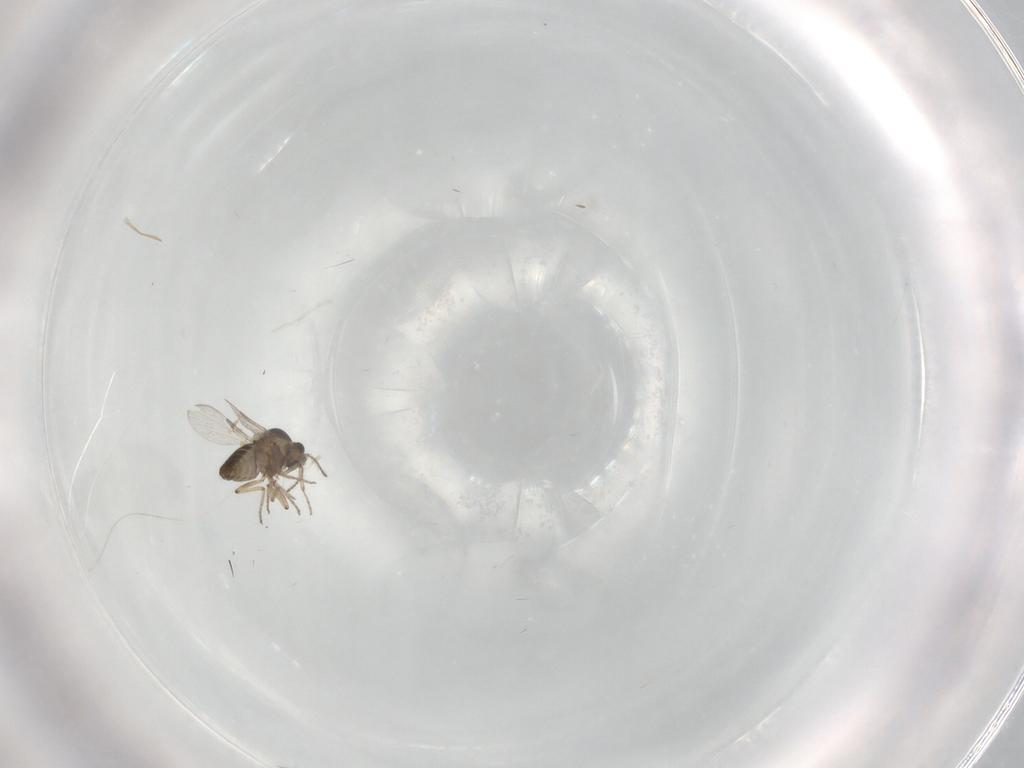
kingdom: Animalia
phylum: Arthropoda
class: Insecta
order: Diptera
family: Ceratopogonidae
